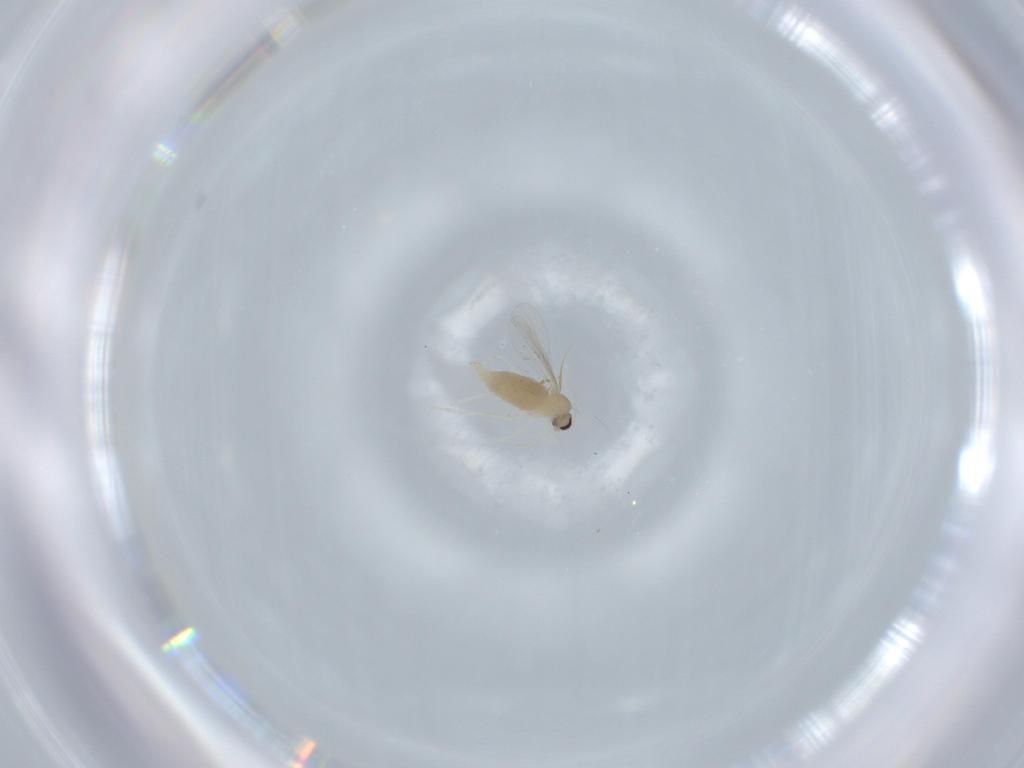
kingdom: Animalia
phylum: Arthropoda
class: Insecta
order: Diptera
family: Cecidomyiidae
